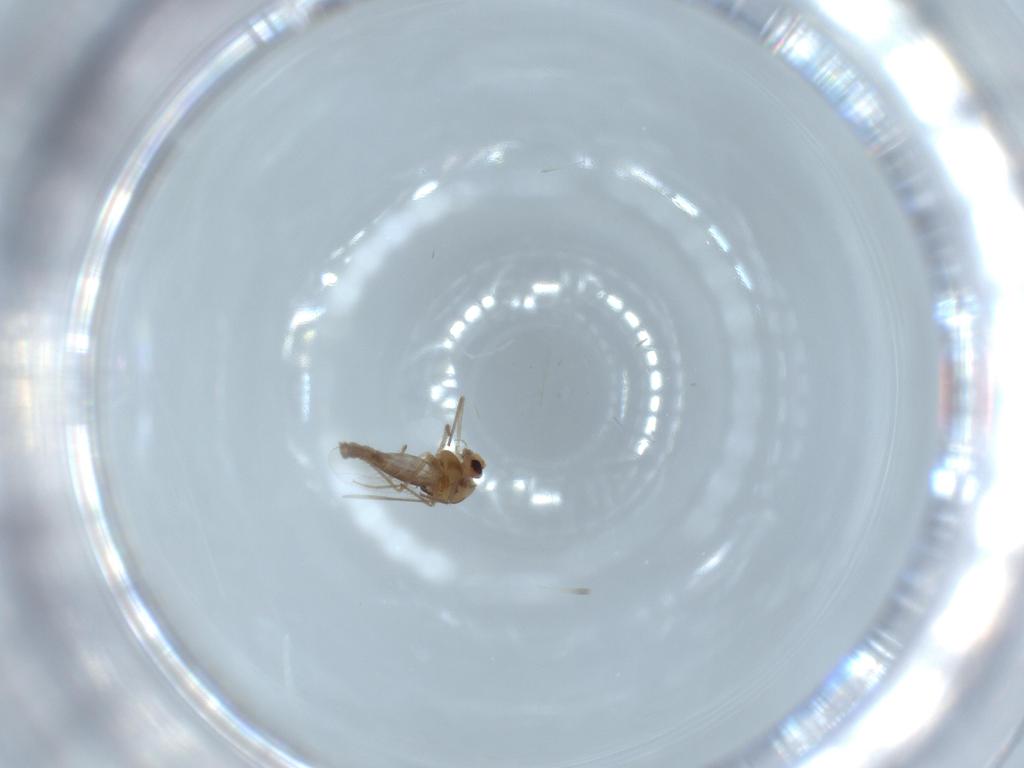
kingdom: Animalia
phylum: Arthropoda
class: Insecta
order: Diptera
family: Chironomidae
